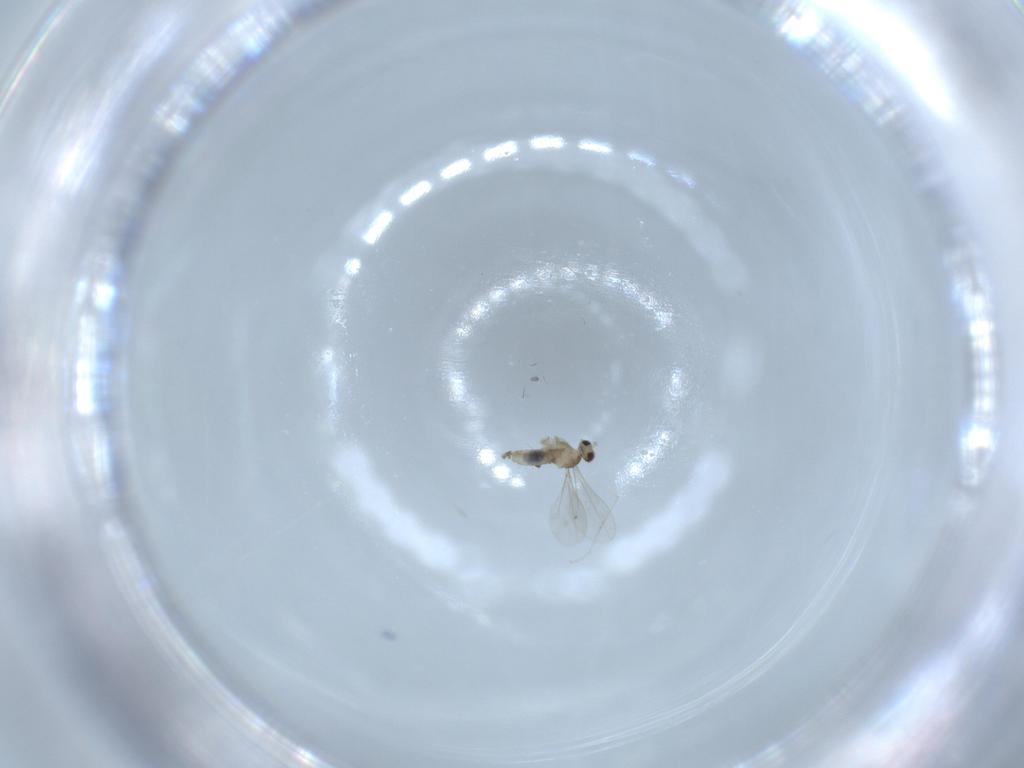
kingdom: Animalia
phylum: Arthropoda
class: Insecta
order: Diptera
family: Cecidomyiidae
